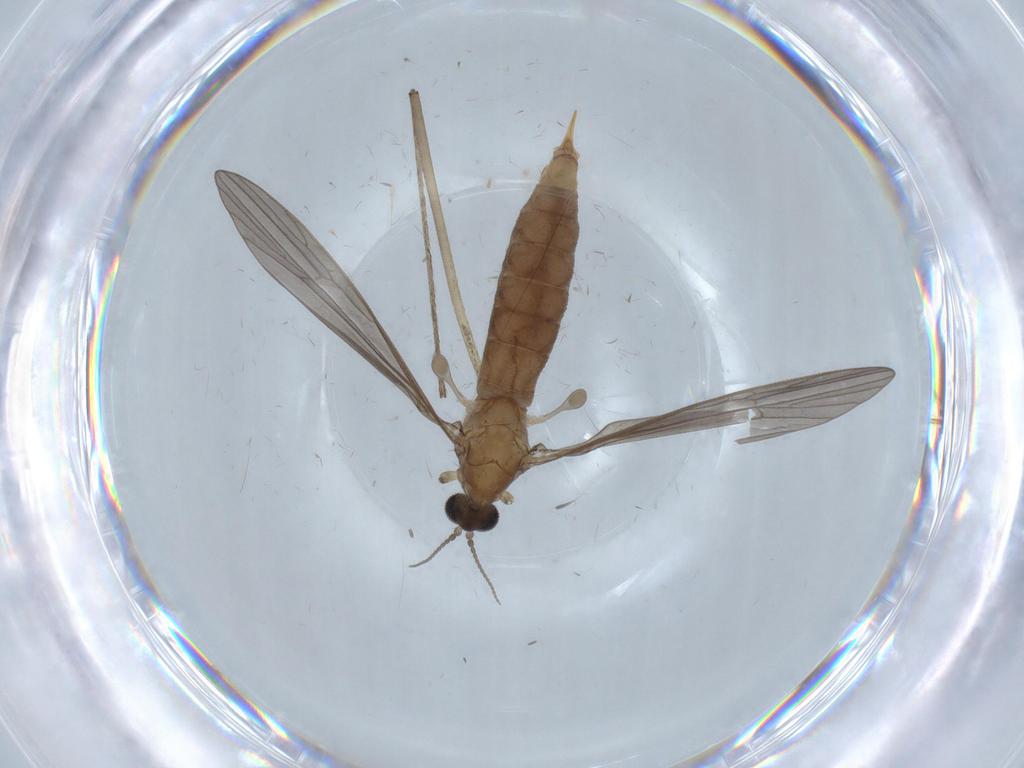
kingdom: Animalia
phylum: Arthropoda
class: Insecta
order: Diptera
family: Limoniidae
